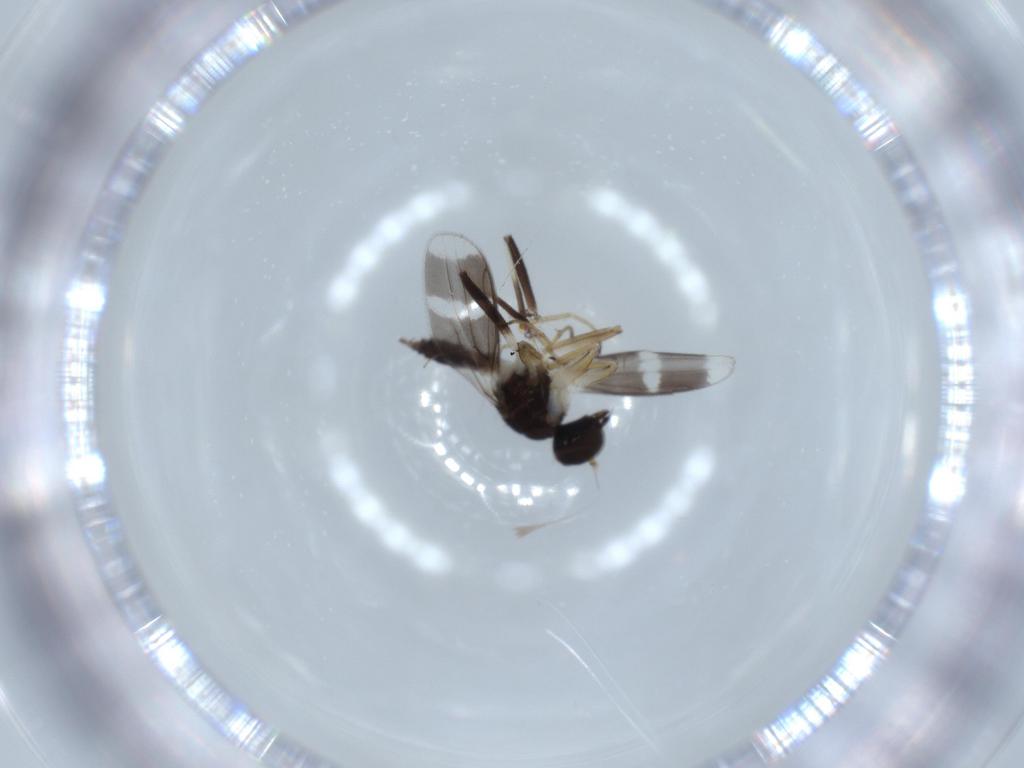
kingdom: Animalia
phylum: Arthropoda
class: Insecta
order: Diptera
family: Hybotidae
